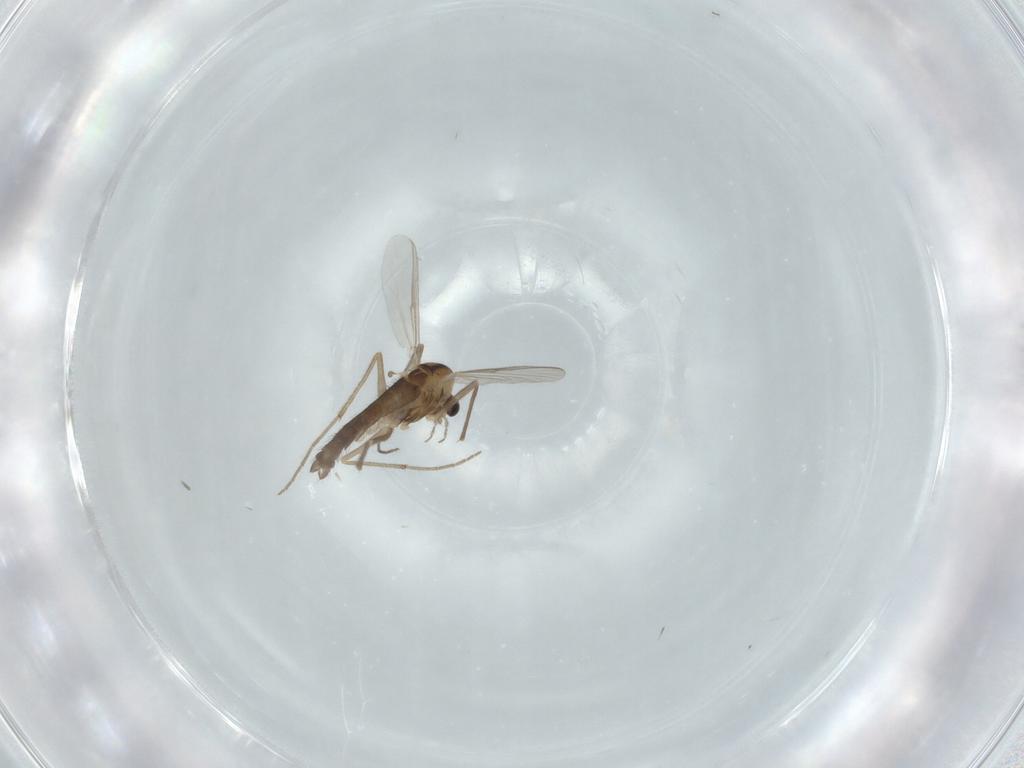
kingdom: Animalia
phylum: Arthropoda
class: Insecta
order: Diptera
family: Chironomidae
